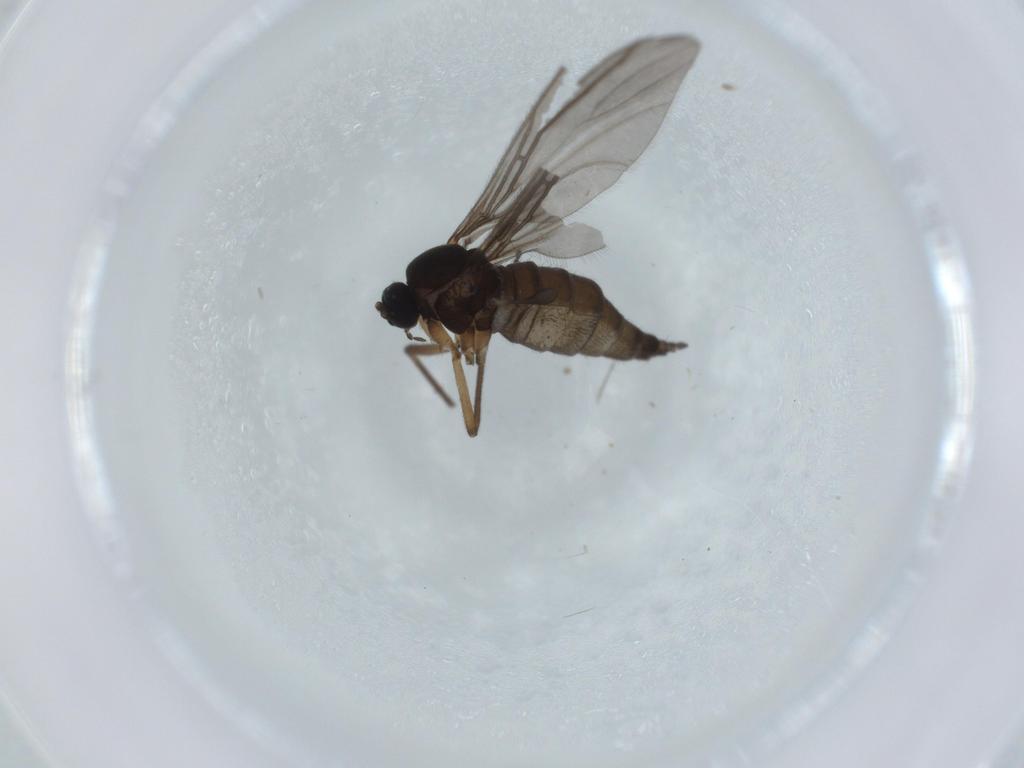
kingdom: Animalia
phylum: Arthropoda
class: Insecta
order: Diptera
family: Sciaridae
